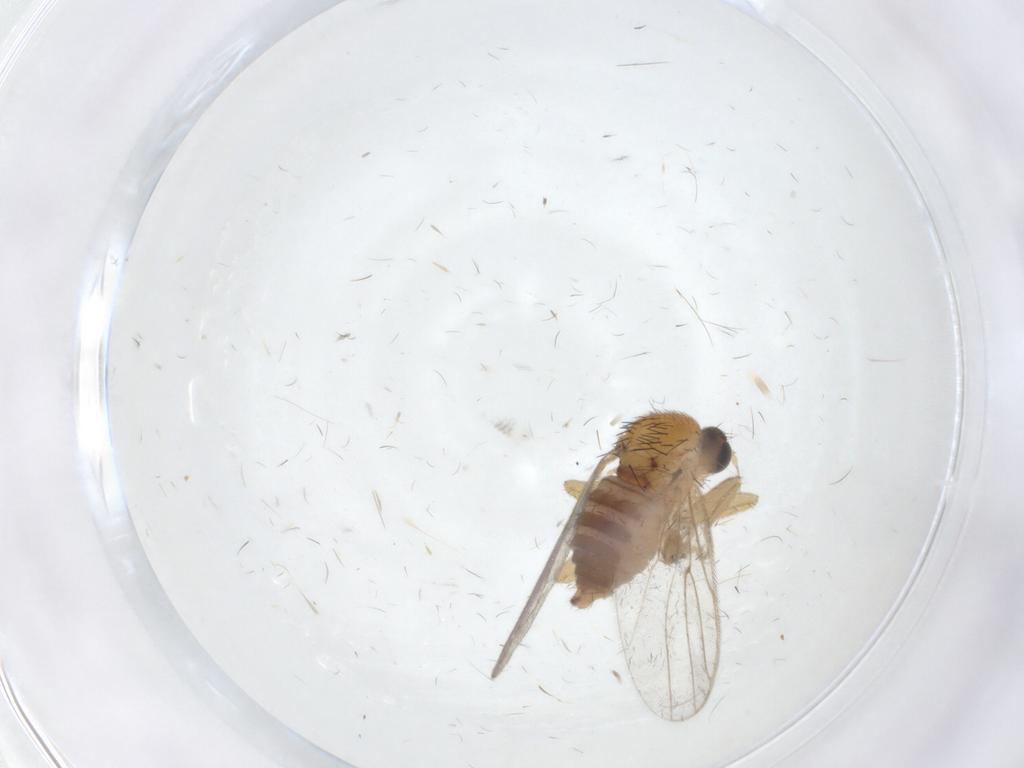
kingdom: Animalia
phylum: Arthropoda
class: Insecta
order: Diptera
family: Hybotidae
